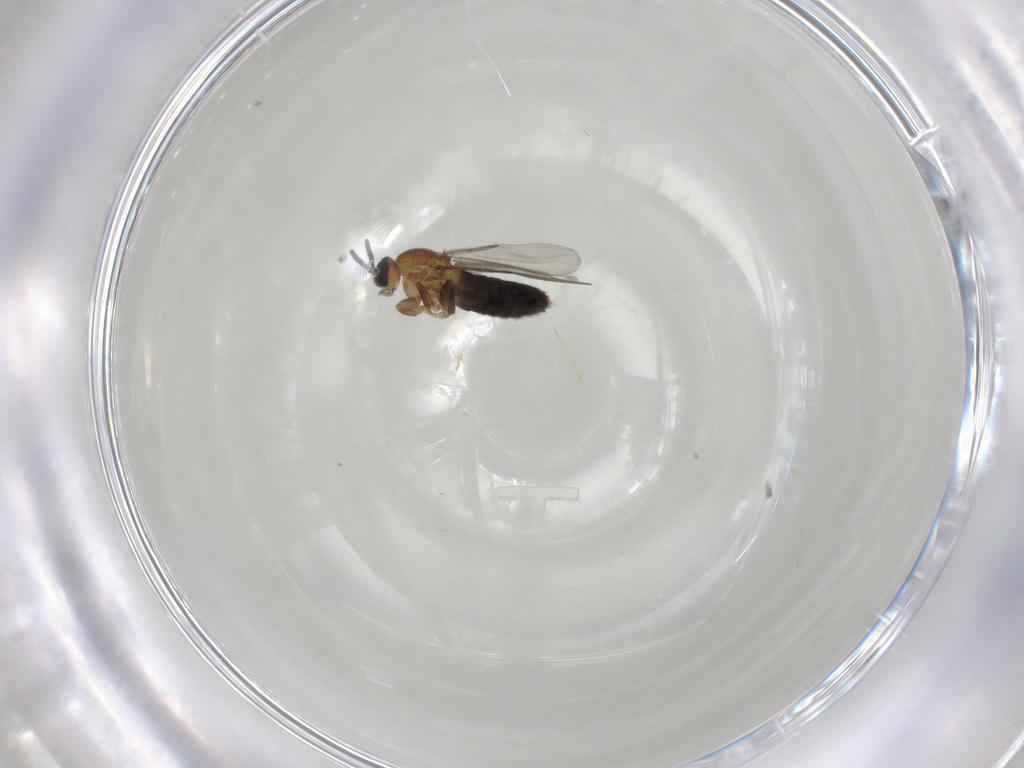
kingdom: Animalia
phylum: Arthropoda
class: Insecta
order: Diptera
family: Scatopsidae
